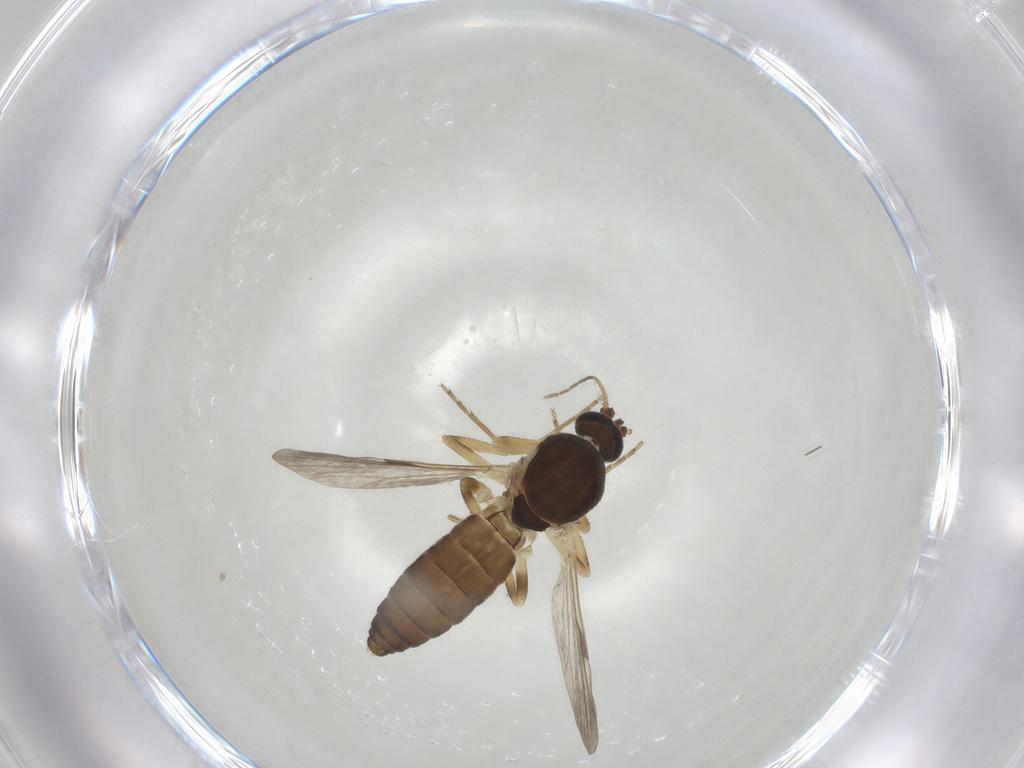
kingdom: Animalia
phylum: Arthropoda
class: Insecta
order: Diptera
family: Ceratopogonidae
